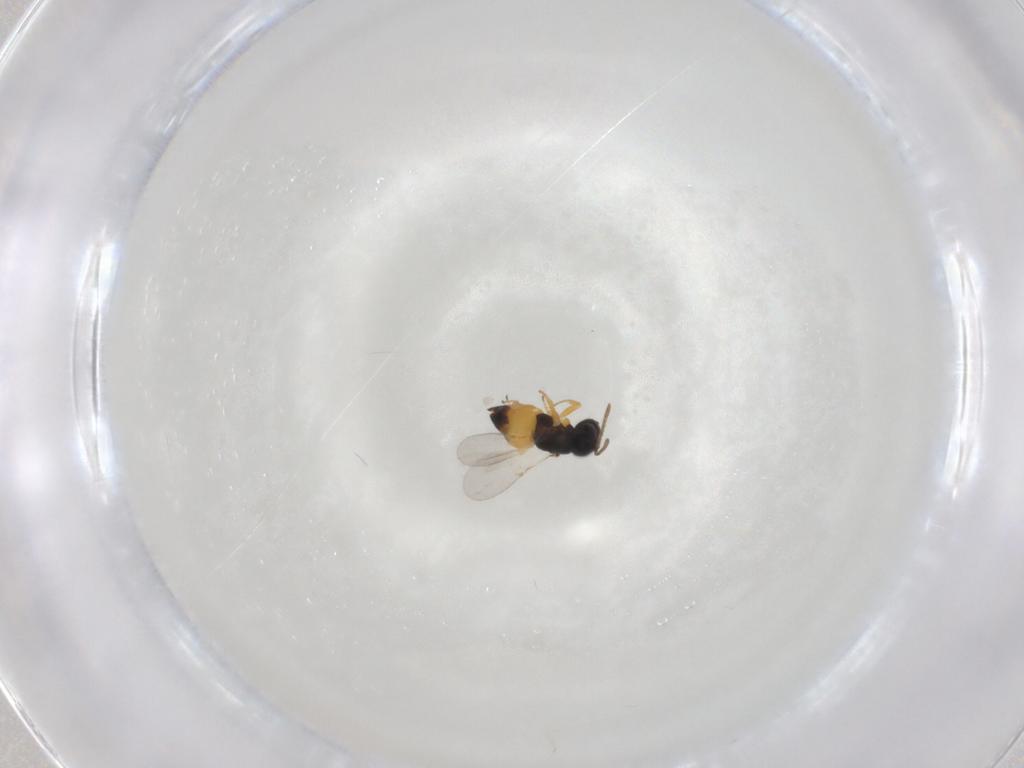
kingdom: Animalia
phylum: Arthropoda
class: Insecta
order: Hymenoptera
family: Encyrtidae
